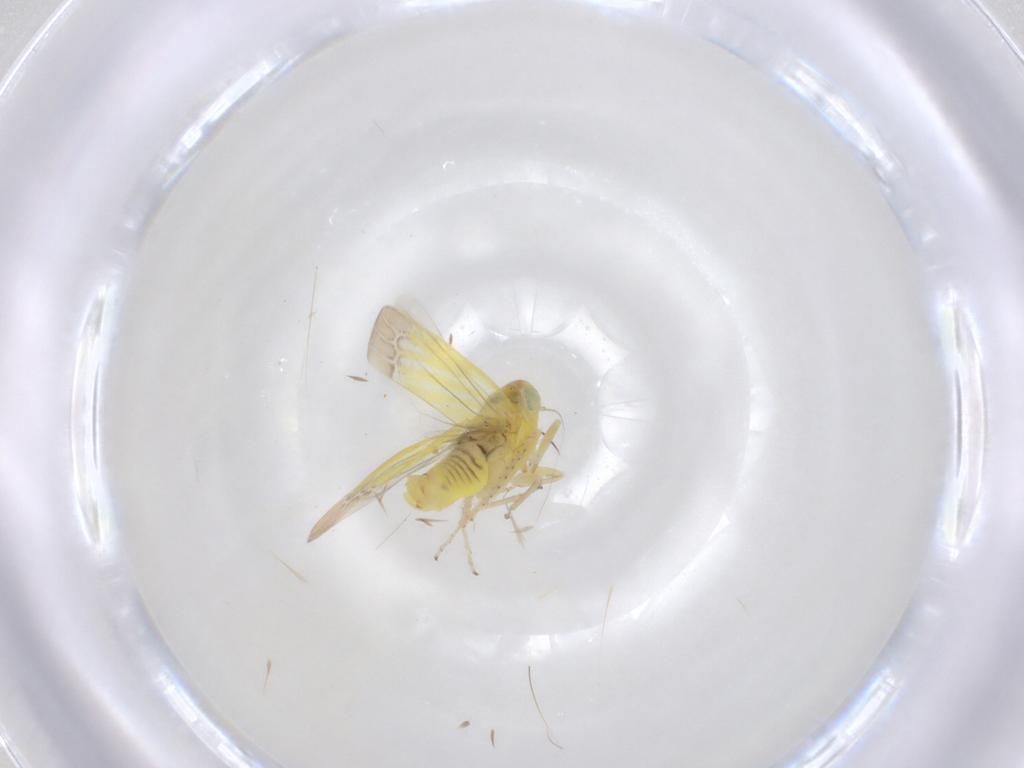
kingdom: Animalia
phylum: Arthropoda
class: Insecta
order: Hemiptera
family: Cicadellidae
